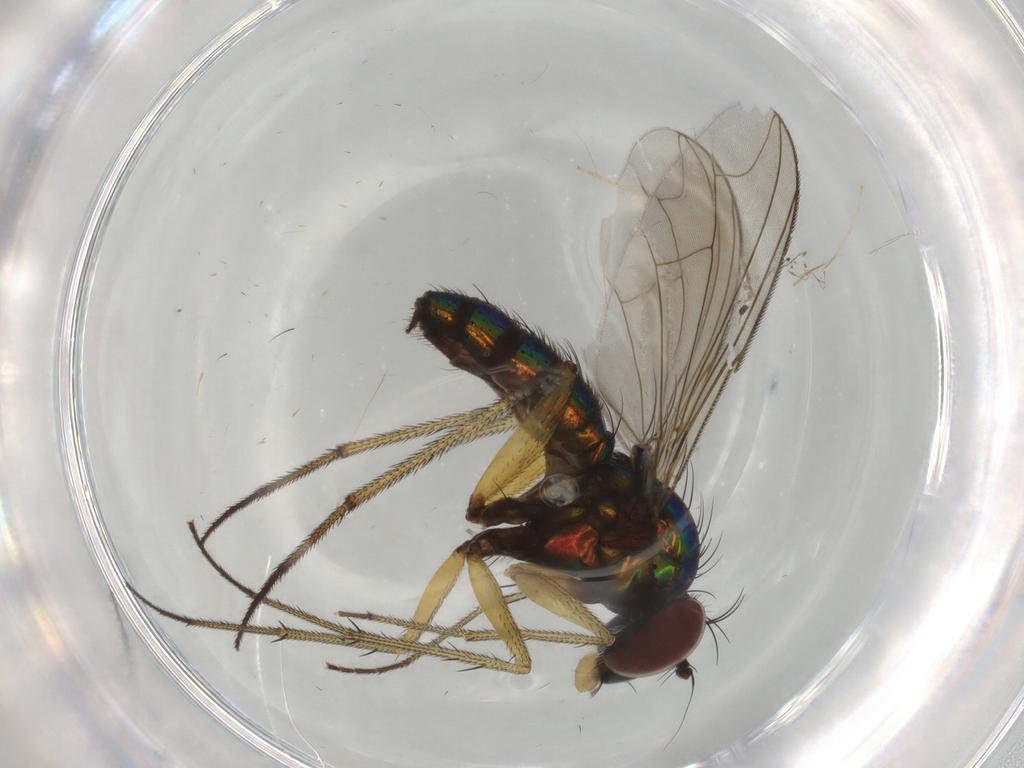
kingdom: Animalia
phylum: Arthropoda
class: Insecta
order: Diptera
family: Dolichopodidae
